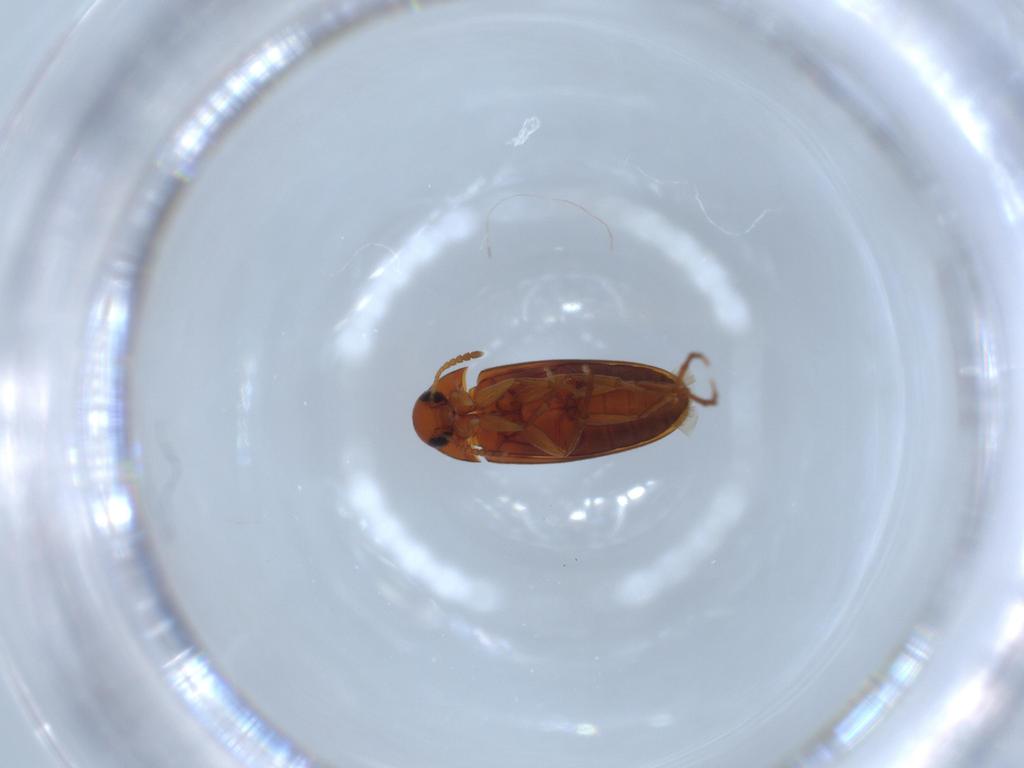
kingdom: Animalia
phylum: Arthropoda
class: Insecta
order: Coleoptera
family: Scraptiidae
